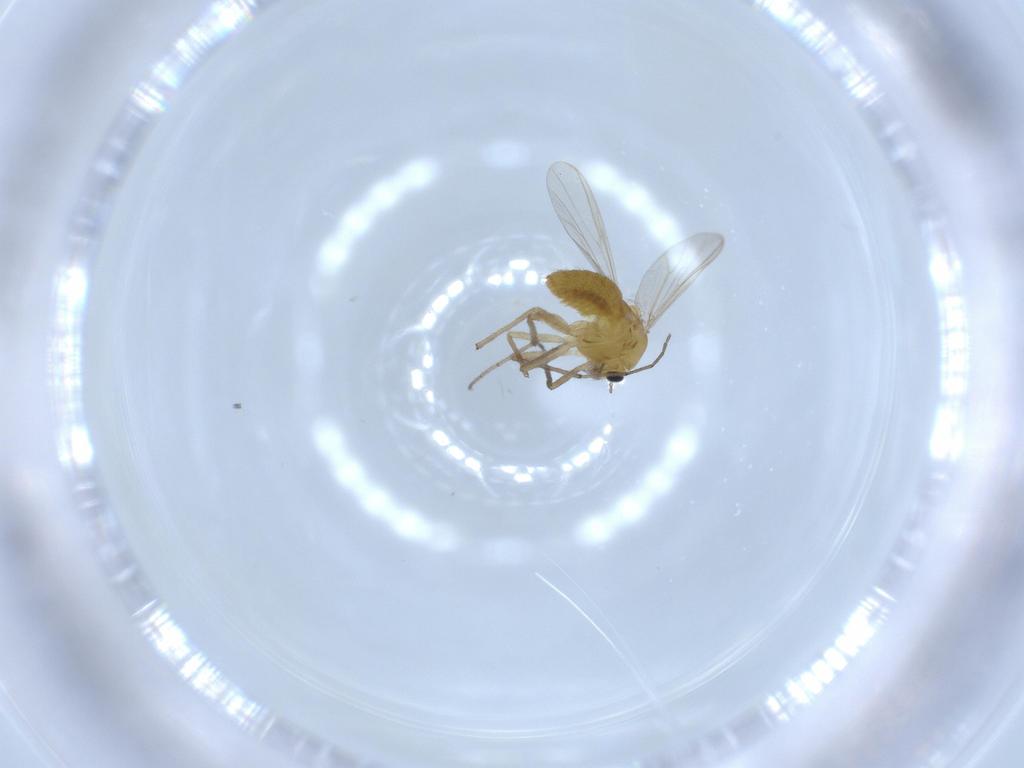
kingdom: Animalia
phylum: Arthropoda
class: Insecta
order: Diptera
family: Chironomidae
